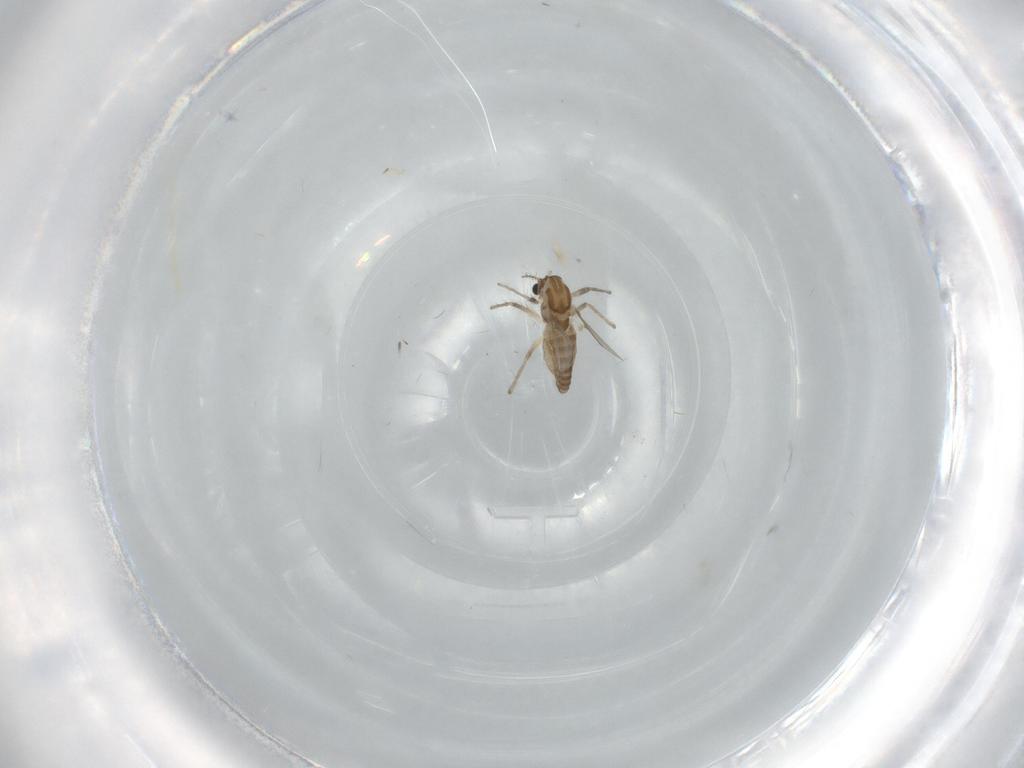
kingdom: Animalia
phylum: Arthropoda
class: Insecta
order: Diptera
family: Chironomidae
